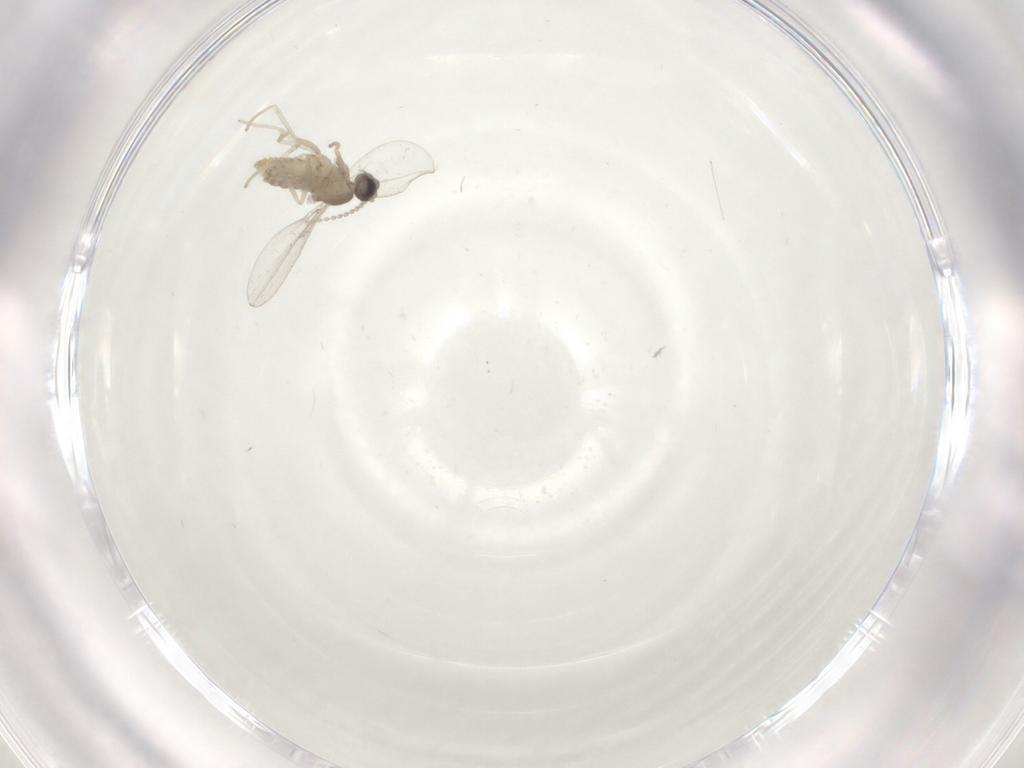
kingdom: Animalia
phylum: Arthropoda
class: Insecta
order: Diptera
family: Cecidomyiidae
